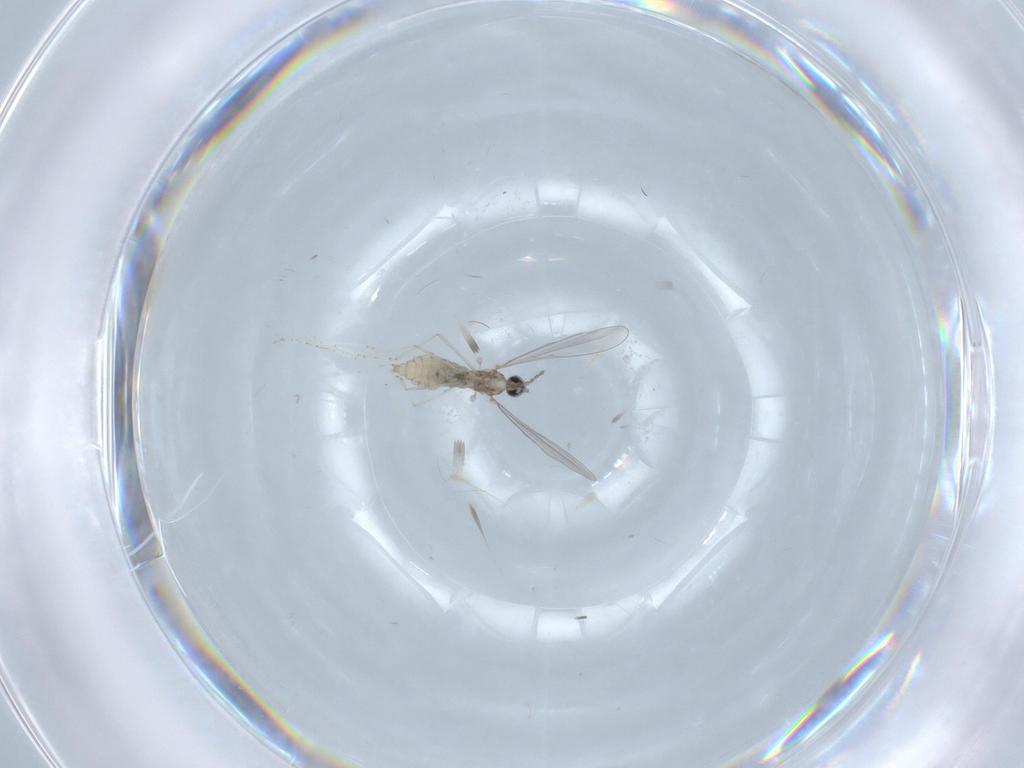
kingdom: Animalia
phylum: Arthropoda
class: Insecta
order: Diptera
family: Cecidomyiidae
